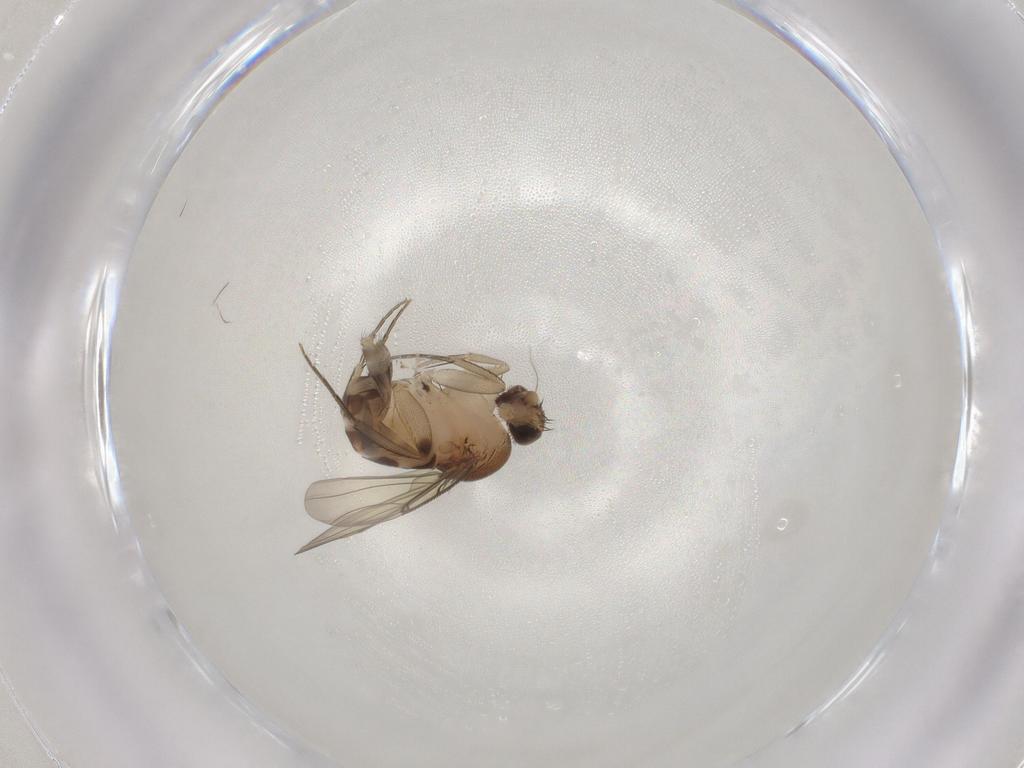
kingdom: Animalia
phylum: Arthropoda
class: Insecta
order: Diptera
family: Phoridae
